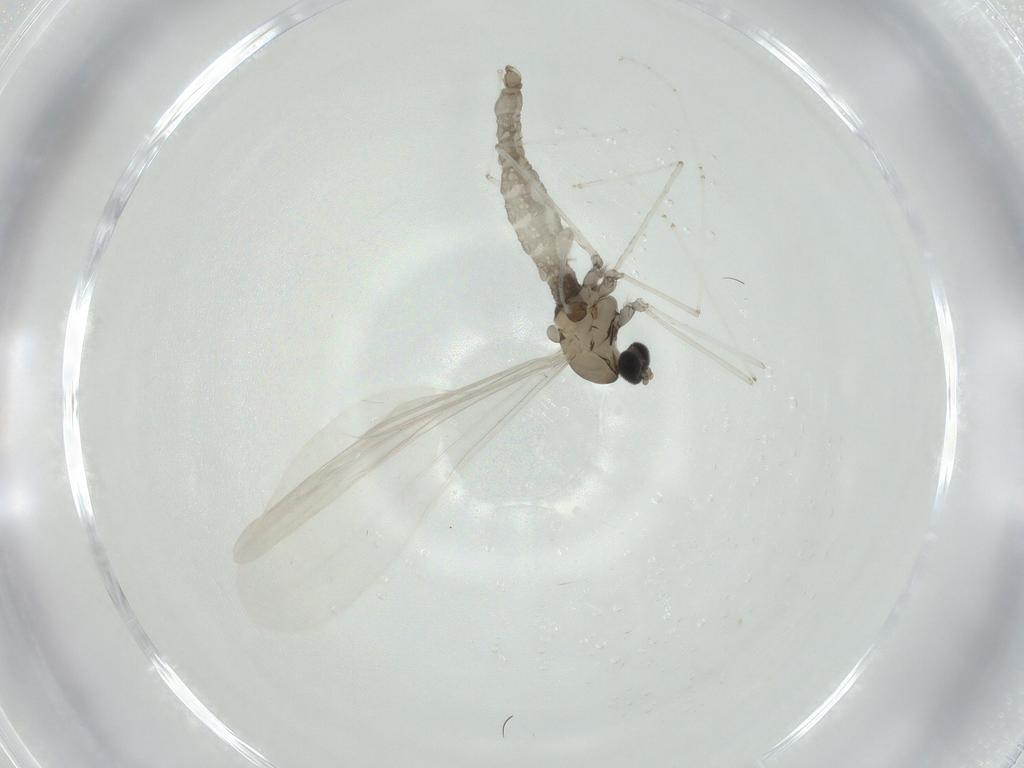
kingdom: Animalia
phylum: Arthropoda
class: Insecta
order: Diptera
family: Cecidomyiidae
